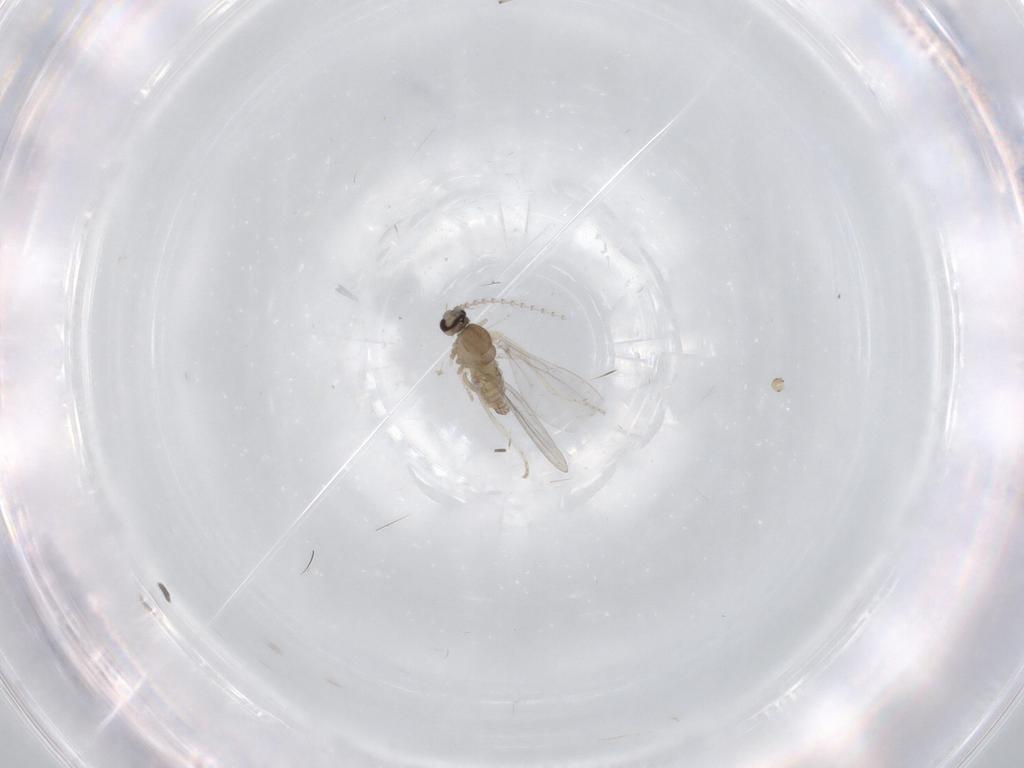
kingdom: Animalia
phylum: Arthropoda
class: Insecta
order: Diptera
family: Cecidomyiidae
